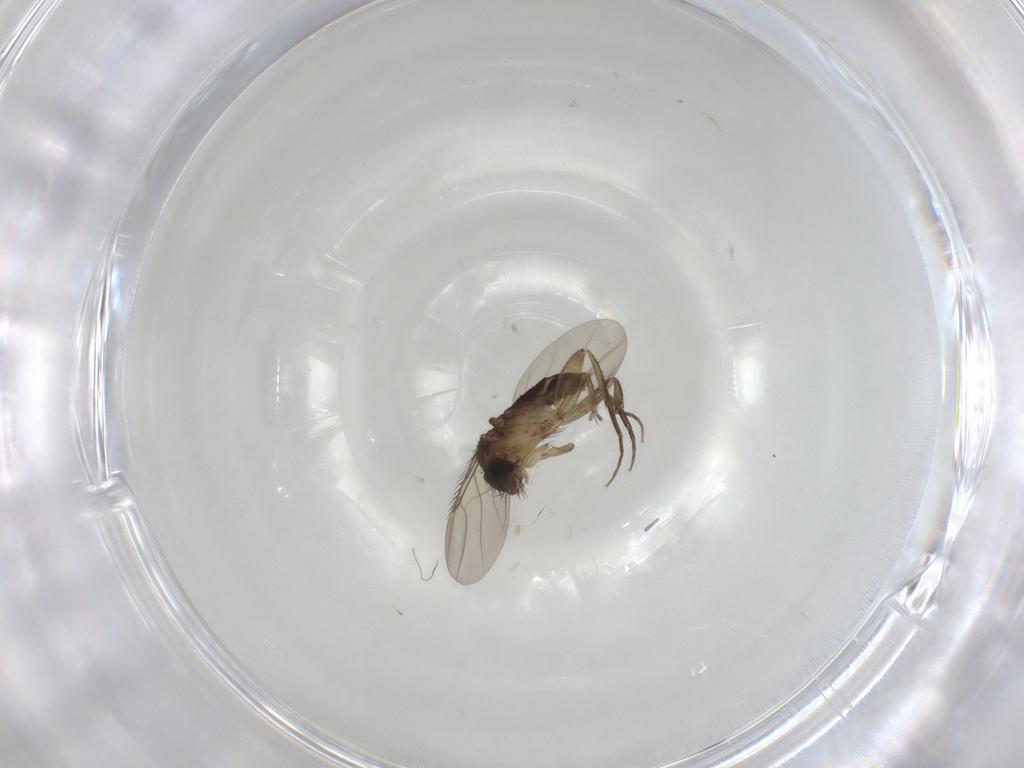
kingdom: Animalia
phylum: Arthropoda
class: Insecta
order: Diptera
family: Phoridae
